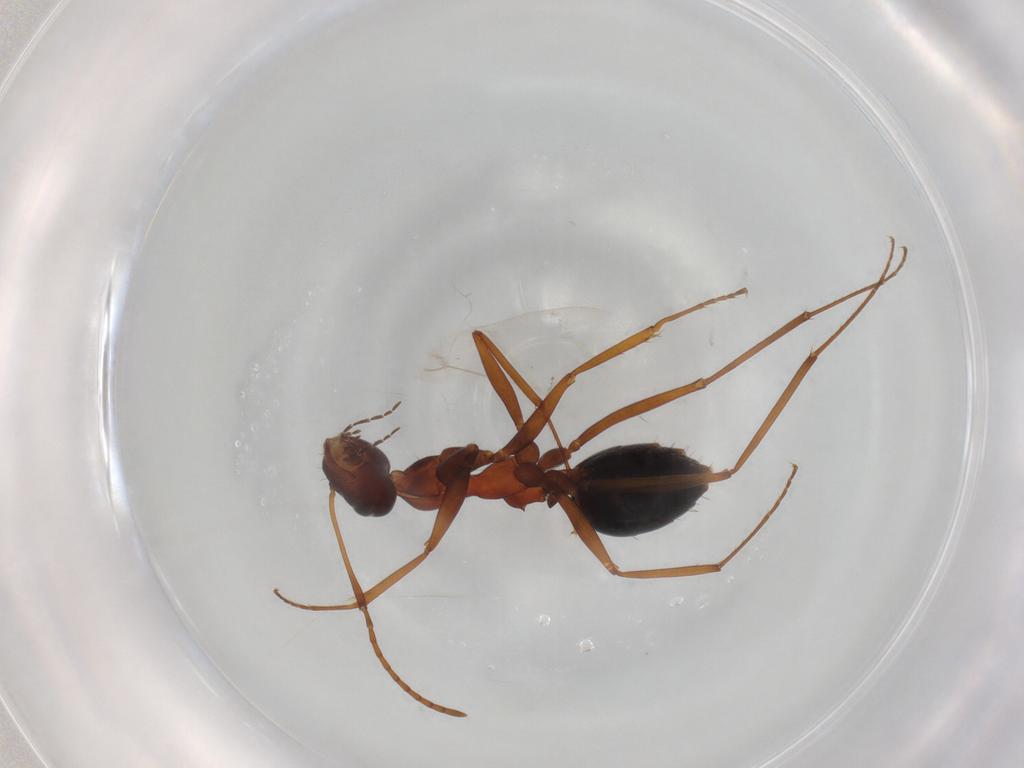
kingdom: Animalia
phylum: Arthropoda
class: Insecta
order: Hymenoptera
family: Formicidae
